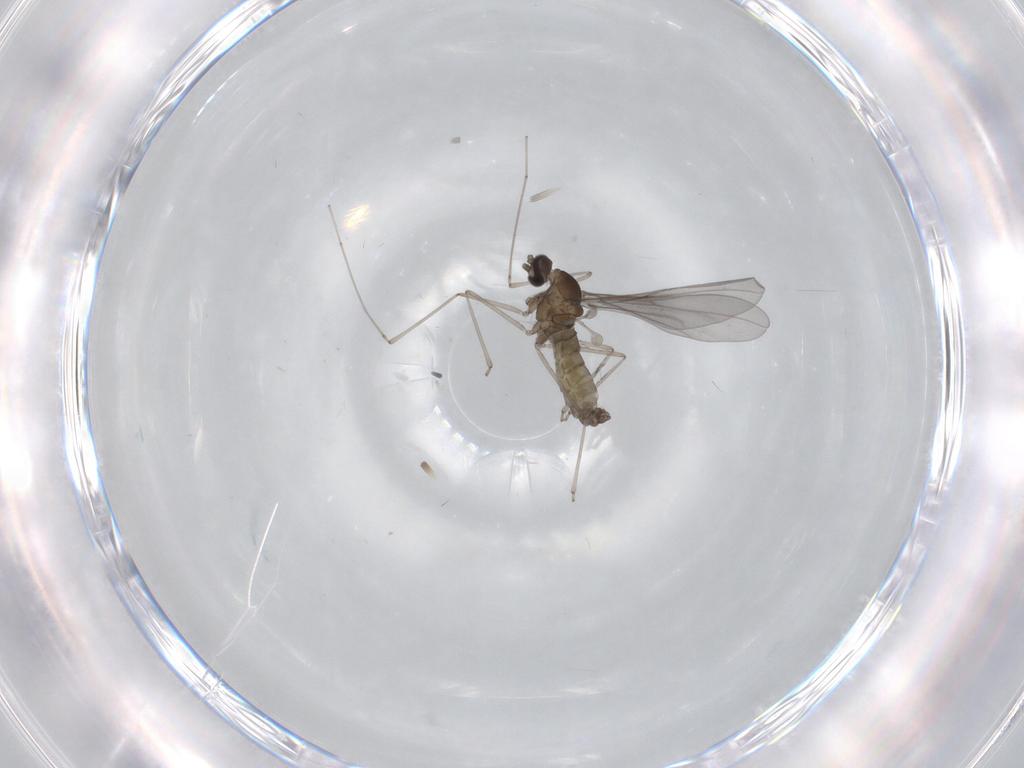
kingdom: Animalia
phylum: Arthropoda
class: Insecta
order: Diptera
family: Cecidomyiidae
